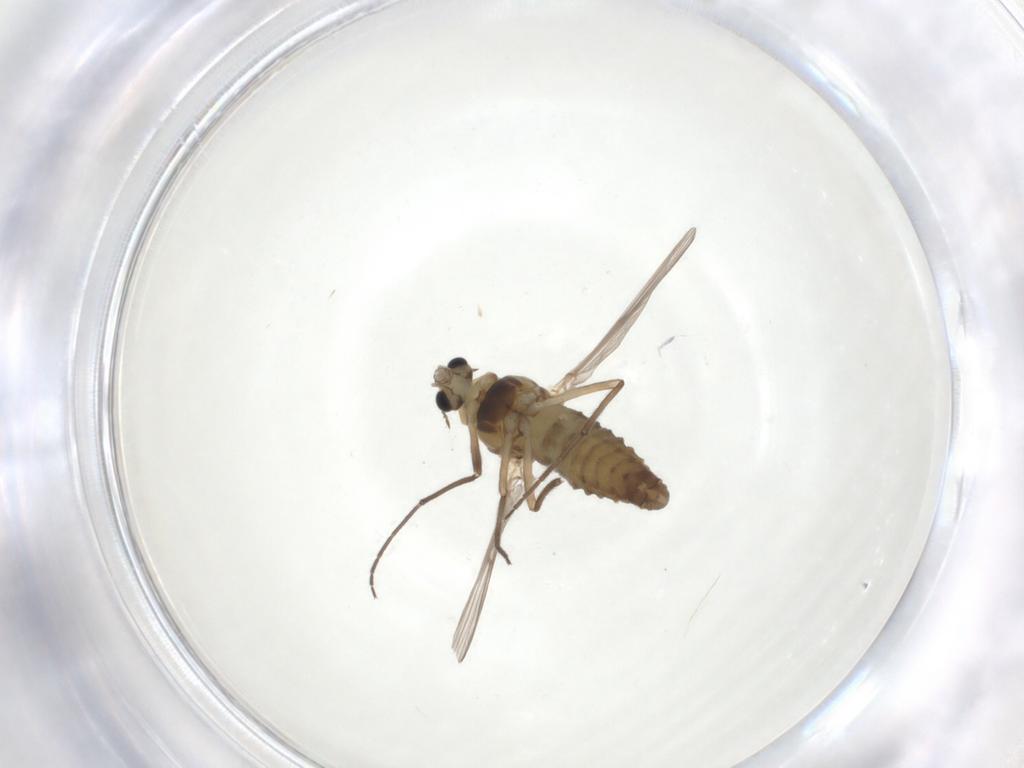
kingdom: Animalia
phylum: Arthropoda
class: Insecta
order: Diptera
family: Chironomidae
